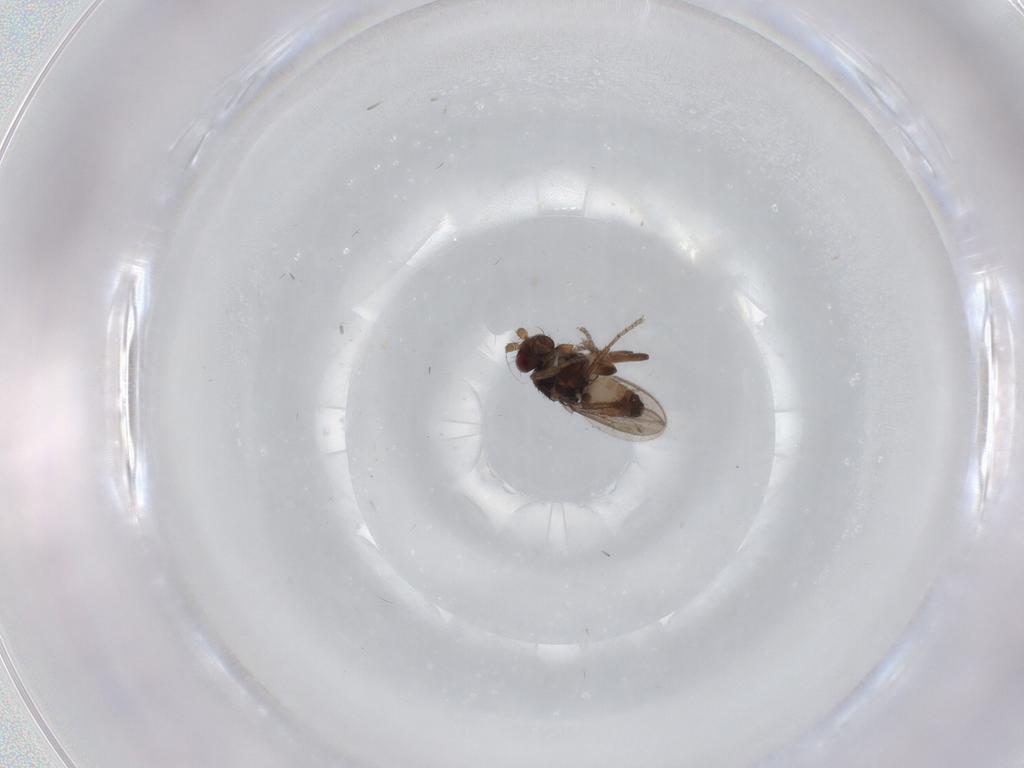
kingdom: Animalia
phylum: Arthropoda
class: Insecta
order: Diptera
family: Sphaeroceridae
